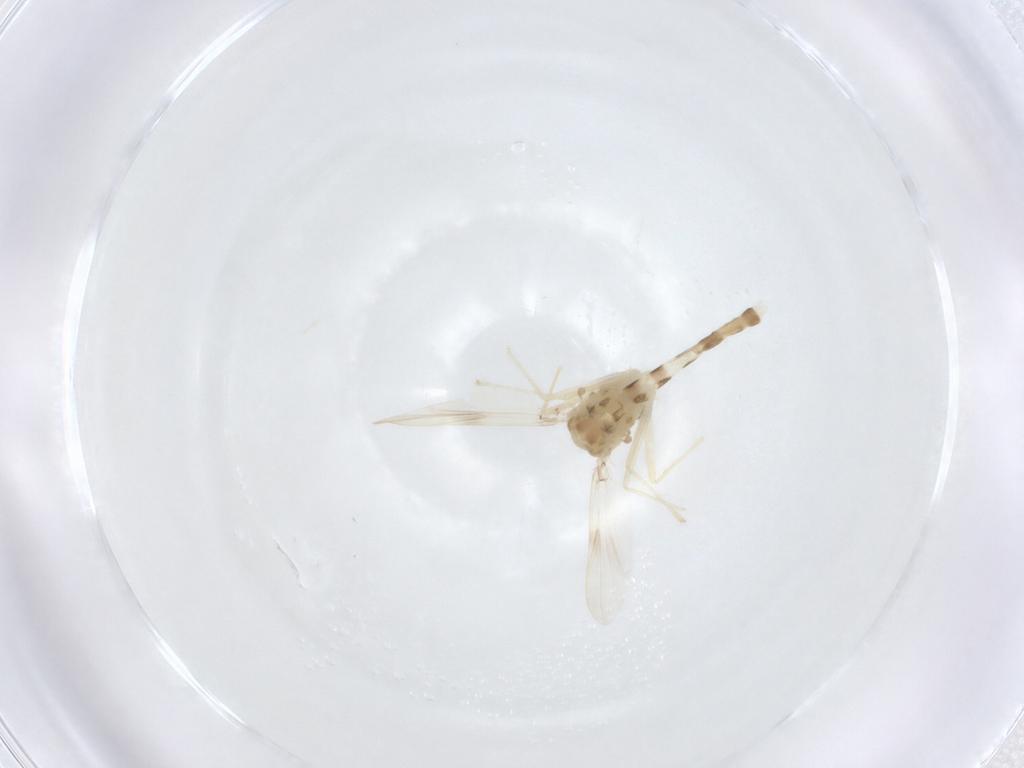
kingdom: Animalia
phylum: Arthropoda
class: Insecta
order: Diptera
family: Chironomidae
